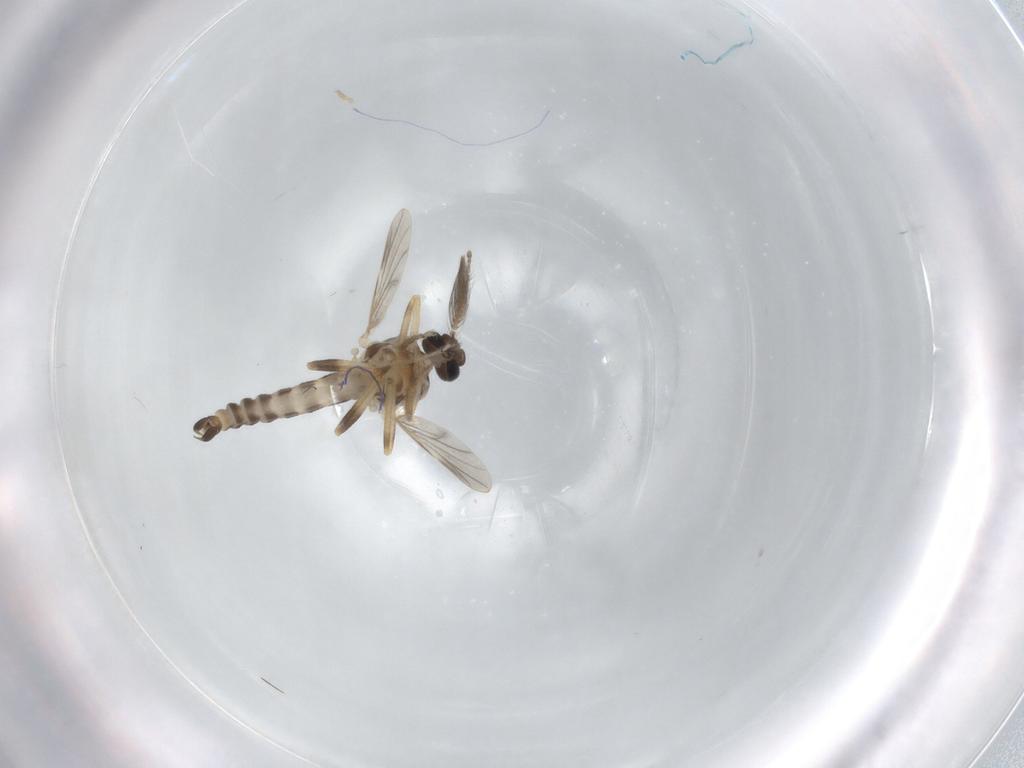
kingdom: Animalia
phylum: Arthropoda
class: Insecta
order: Diptera
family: Ceratopogonidae
